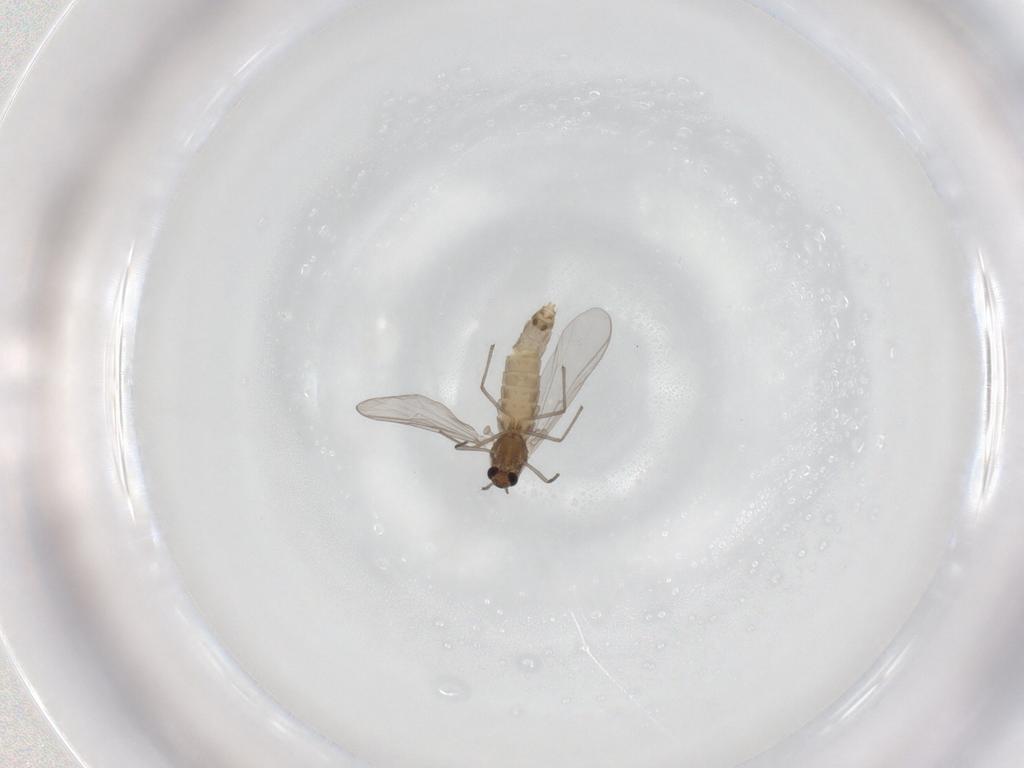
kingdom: Animalia
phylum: Arthropoda
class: Insecta
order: Diptera
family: Chironomidae
